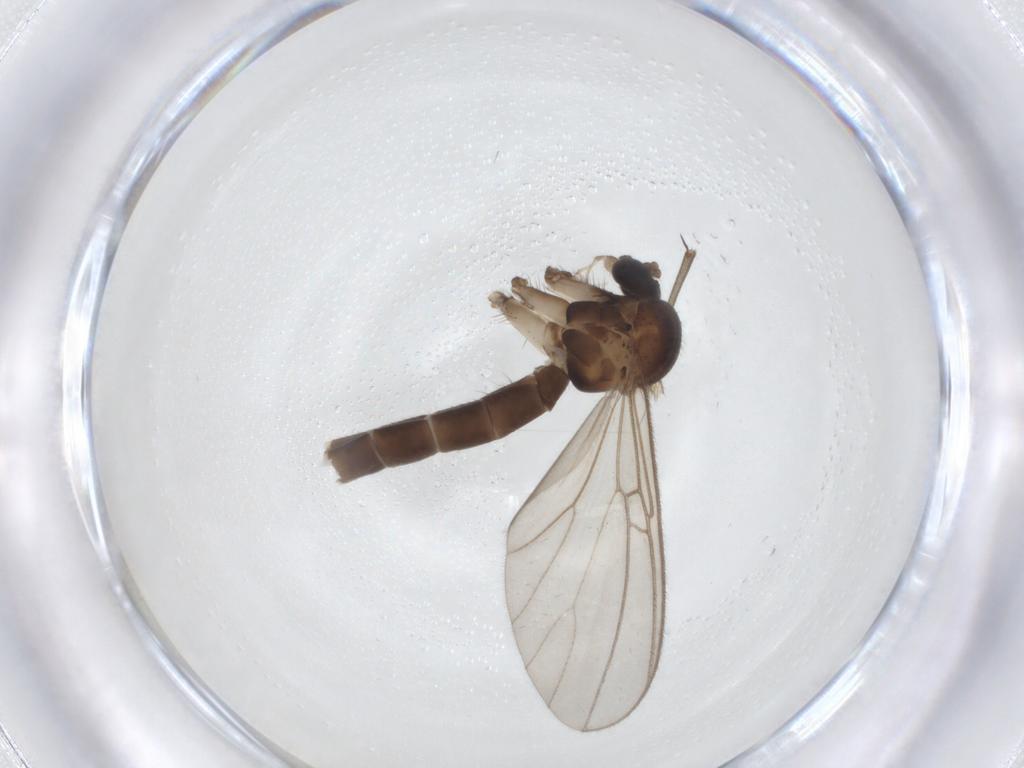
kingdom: Animalia
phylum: Arthropoda
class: Insecta
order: Diptera
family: Mycetophilidae
